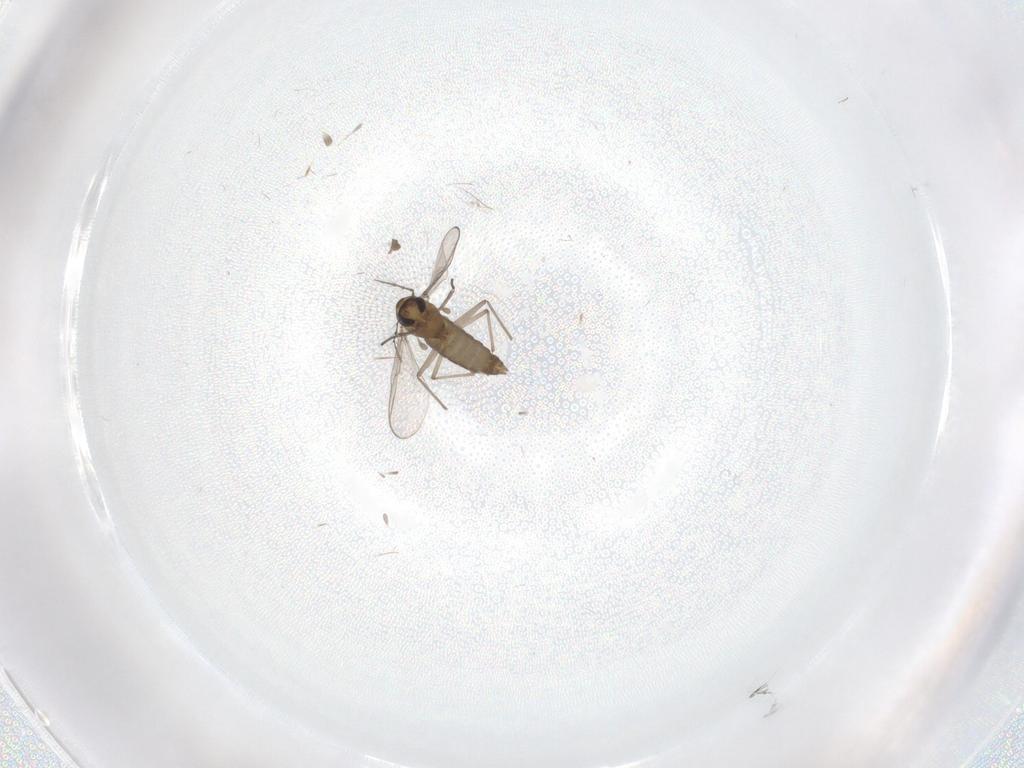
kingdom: Animalia
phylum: Arthropoda
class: Insecta
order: Diptera
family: Chironomidae
